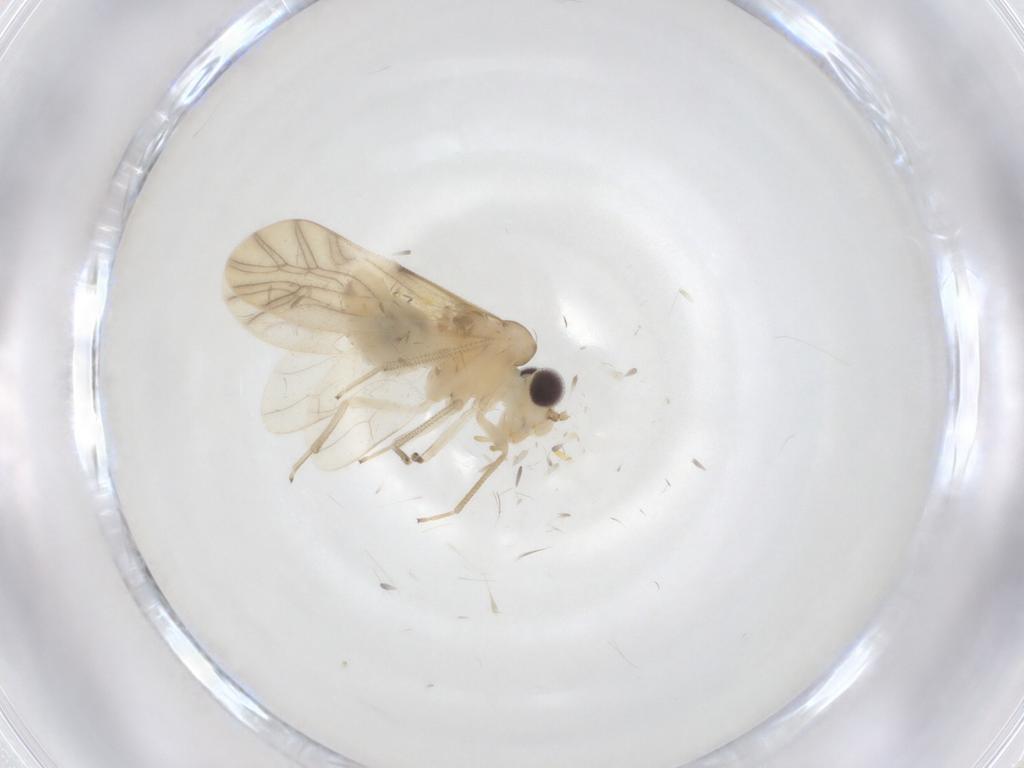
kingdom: Animalia
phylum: Arthropoda
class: Insecta
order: Psocodea
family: Caeciliusidae
